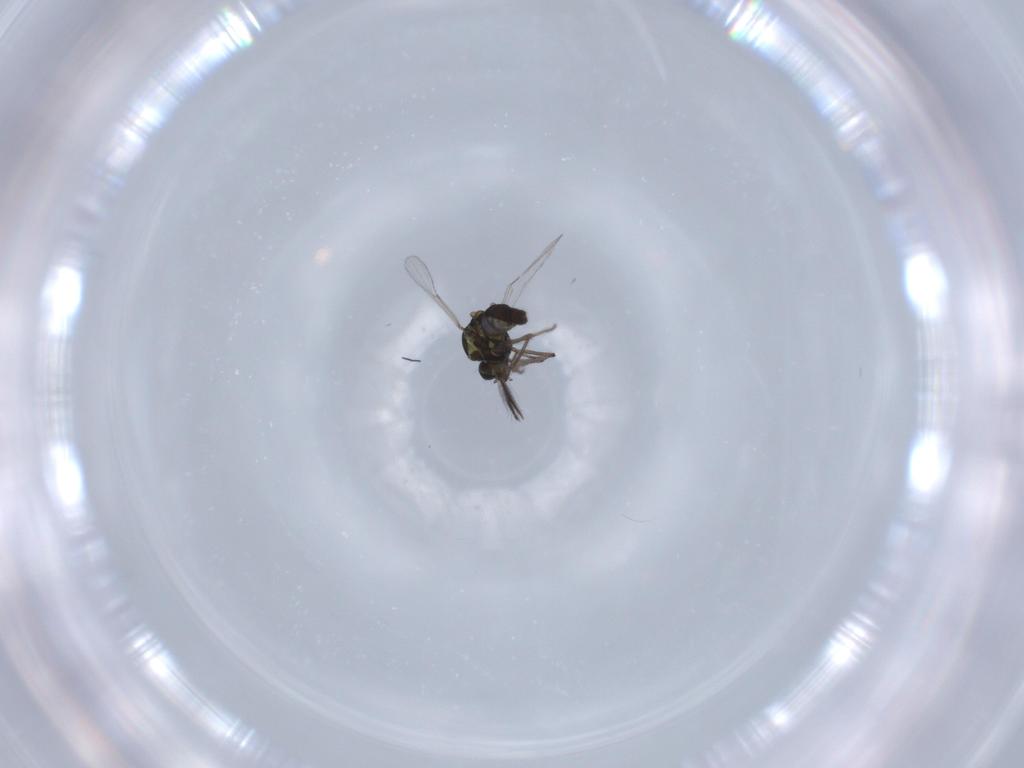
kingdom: Animalia
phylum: Arthropoda
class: Insecta
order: Diptera
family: Ceratopogonidae
